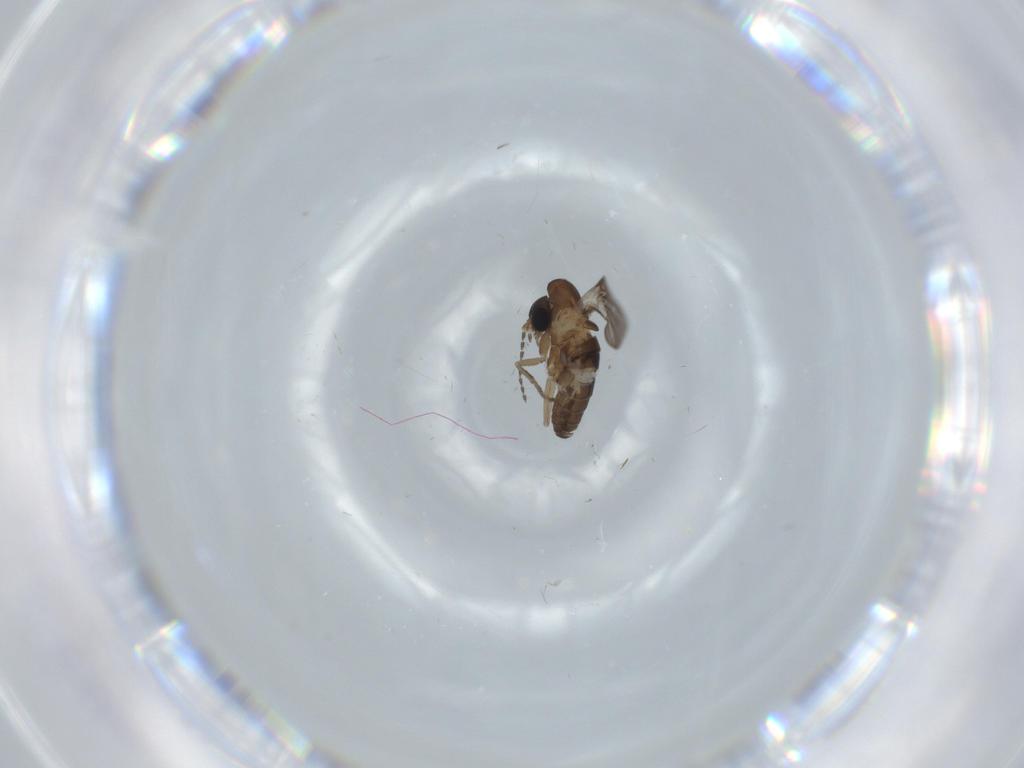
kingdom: Animalia
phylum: Arthropoda
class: Insecta
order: Diptera
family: Psychodidae
